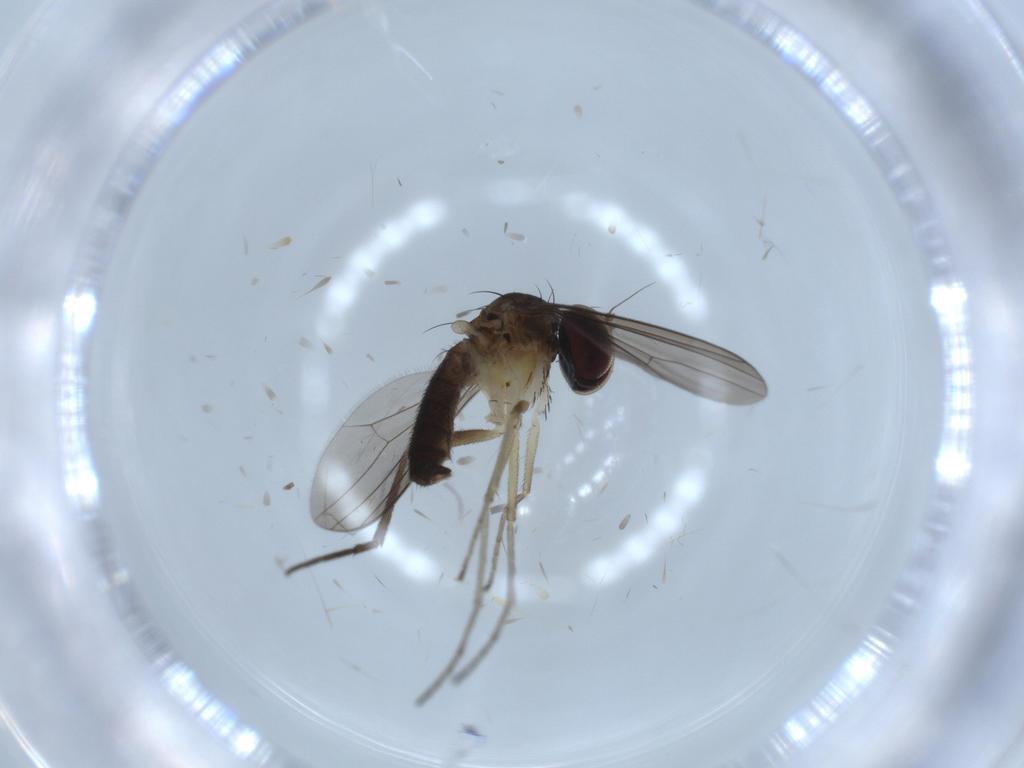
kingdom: Animalia
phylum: Arthropoda
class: Insecta
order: Diptera
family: Dolichopodidae
